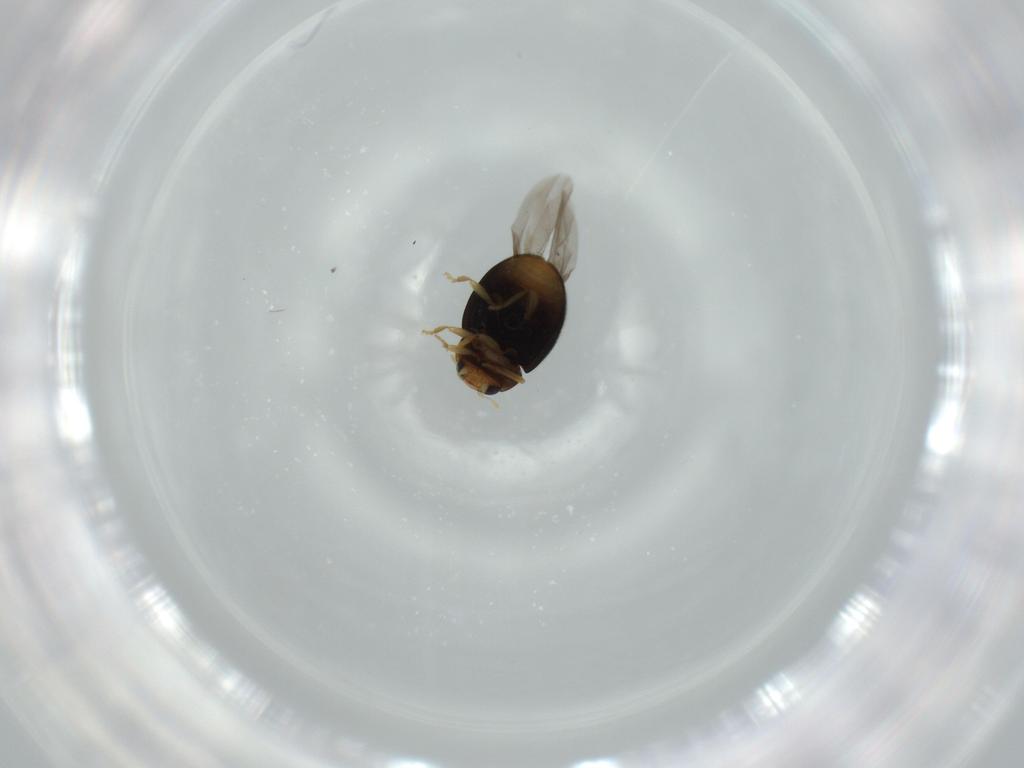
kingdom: Animalia
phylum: Arthropoda
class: Insecta
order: Coleoptera
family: Coccinellidae
